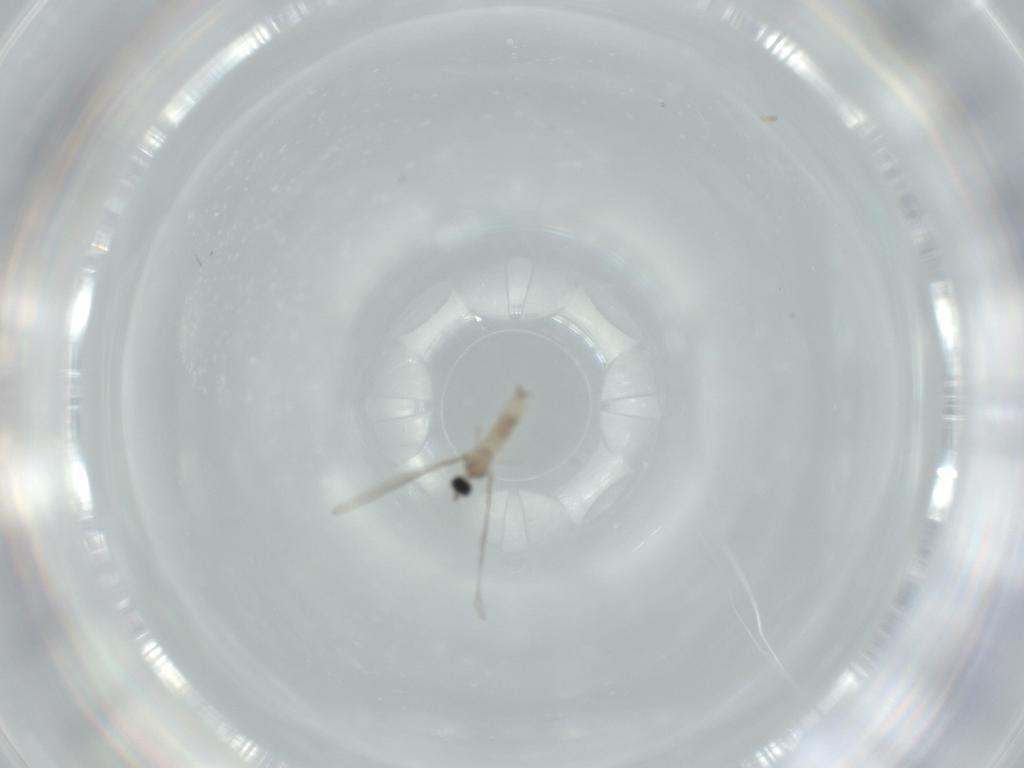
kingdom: Animalia
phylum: Arthropoda
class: Insecta
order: Diptera
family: Cecidomyiidae
